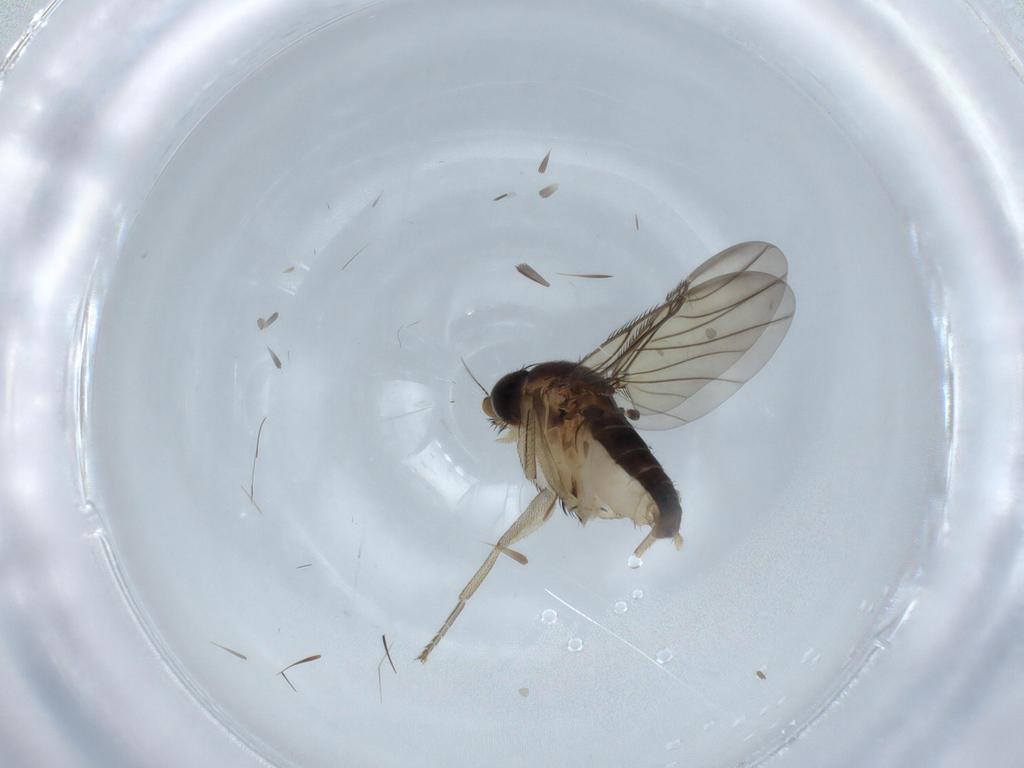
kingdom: Animalia
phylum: Arthropoda
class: Insecta
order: Diptera
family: Phoridae
